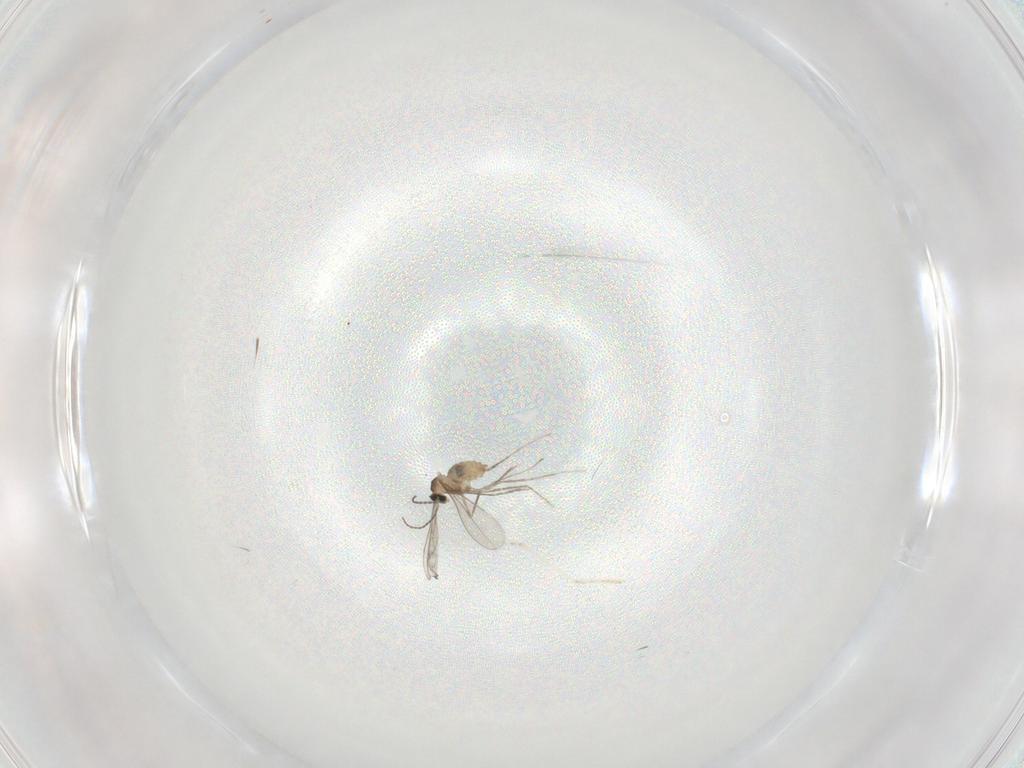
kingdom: Animalia
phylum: Arthropoda
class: Insecta
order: Diptera
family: Cecidomyiidae
